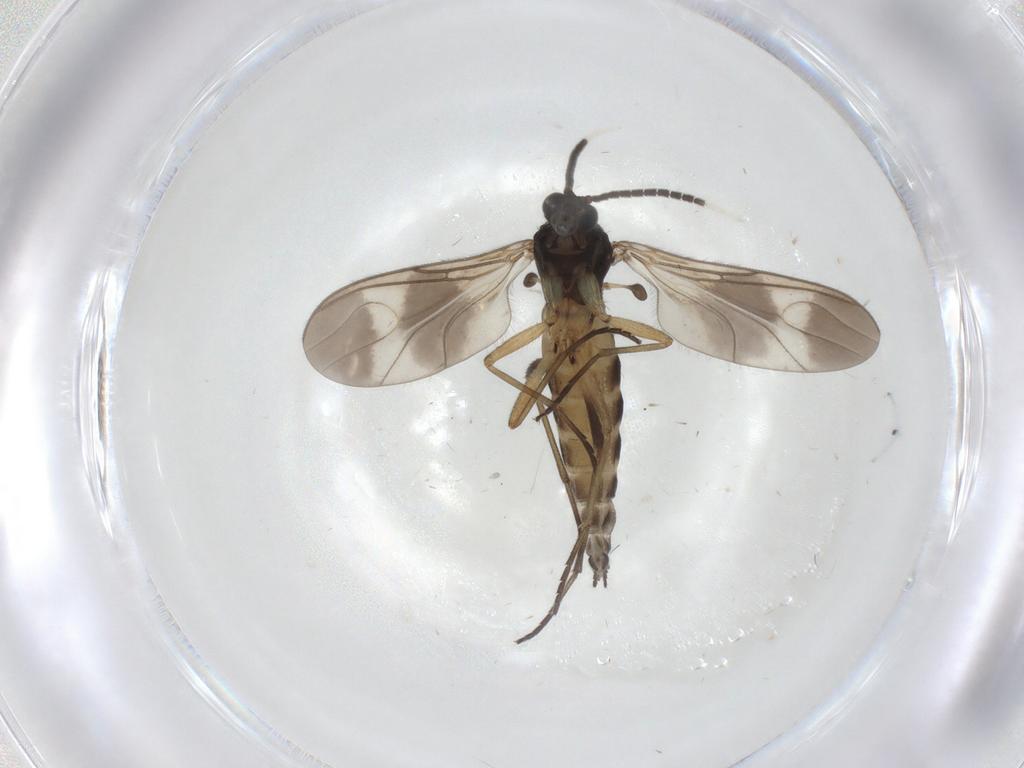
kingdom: Animalia
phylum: Arthropoda
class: Insecta
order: Diptera
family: Sciaridae
